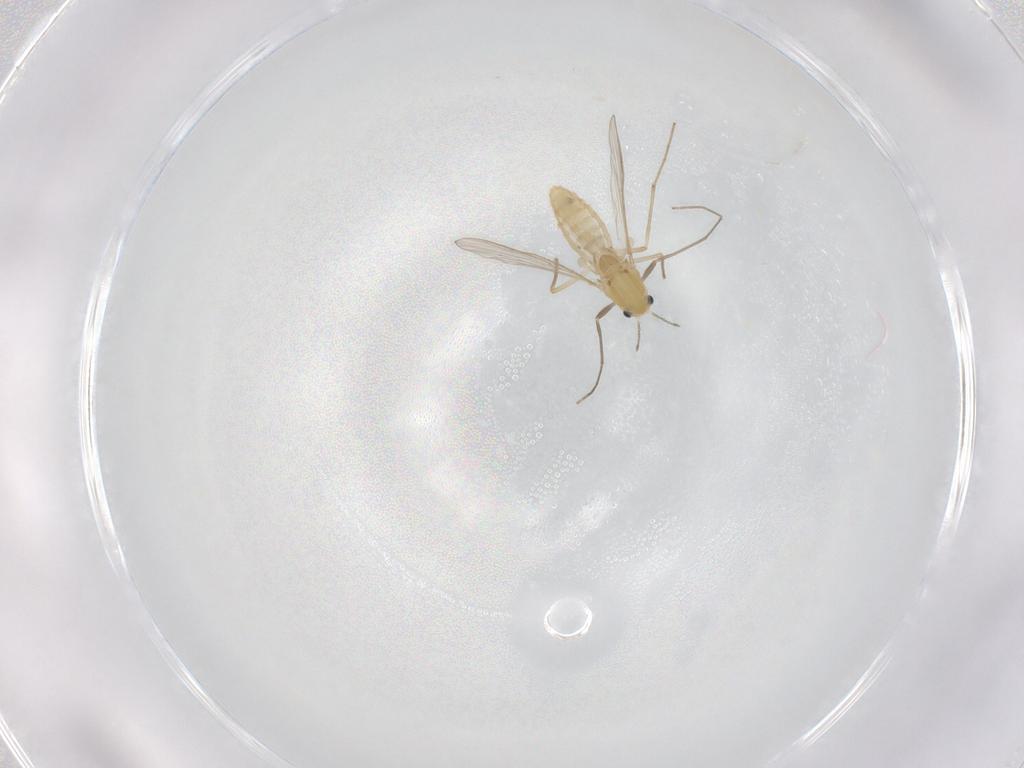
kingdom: Animalia
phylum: Arthropoda
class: Insecta
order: Diptera
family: Chironomidae
